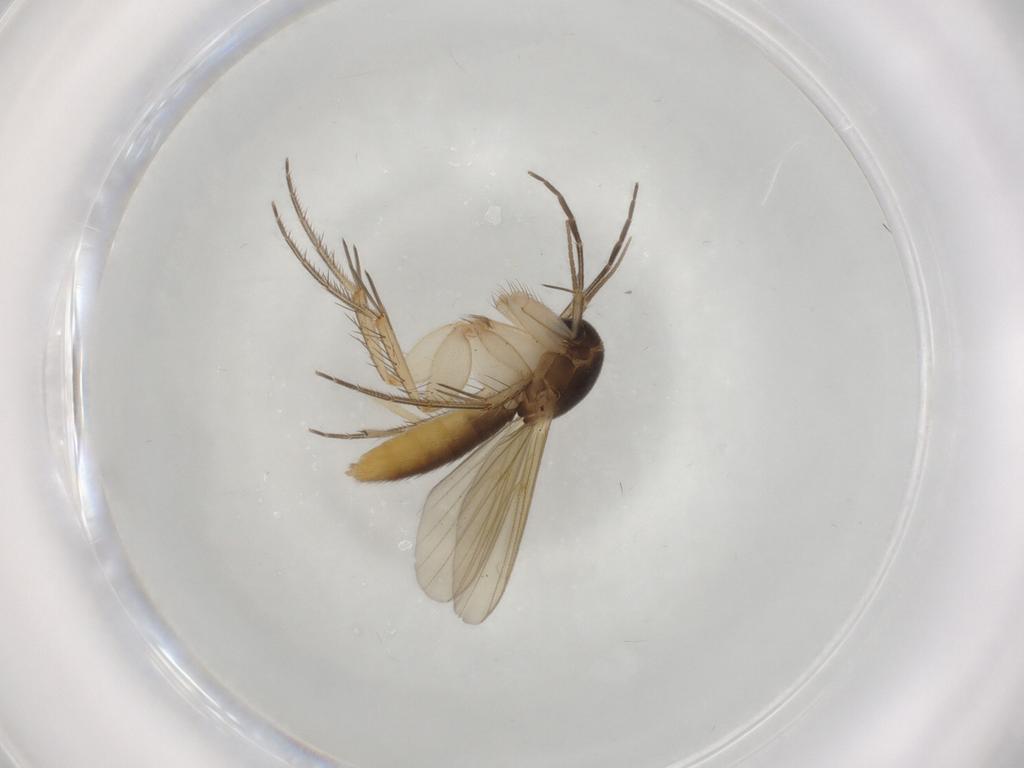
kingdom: Animalia
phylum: Arthropoda
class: Insecta
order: Diptera
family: Mycetophilidae
